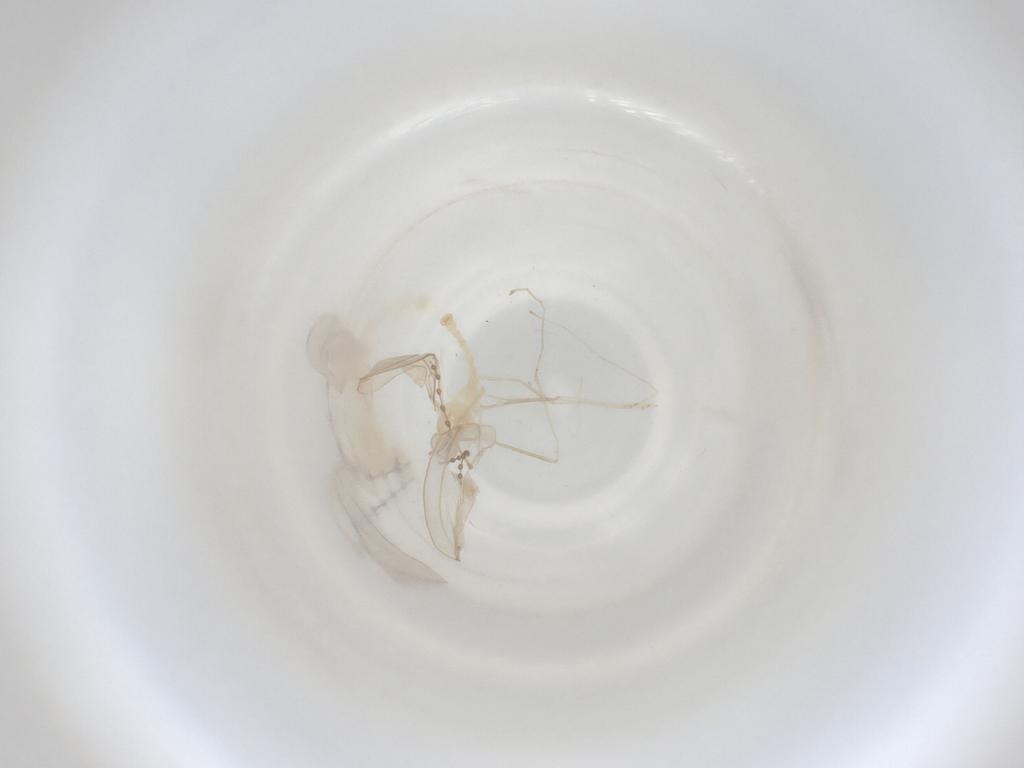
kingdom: Animalia
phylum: Arthropoda
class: Insecta
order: Diptera
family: Cecidomyiidae
